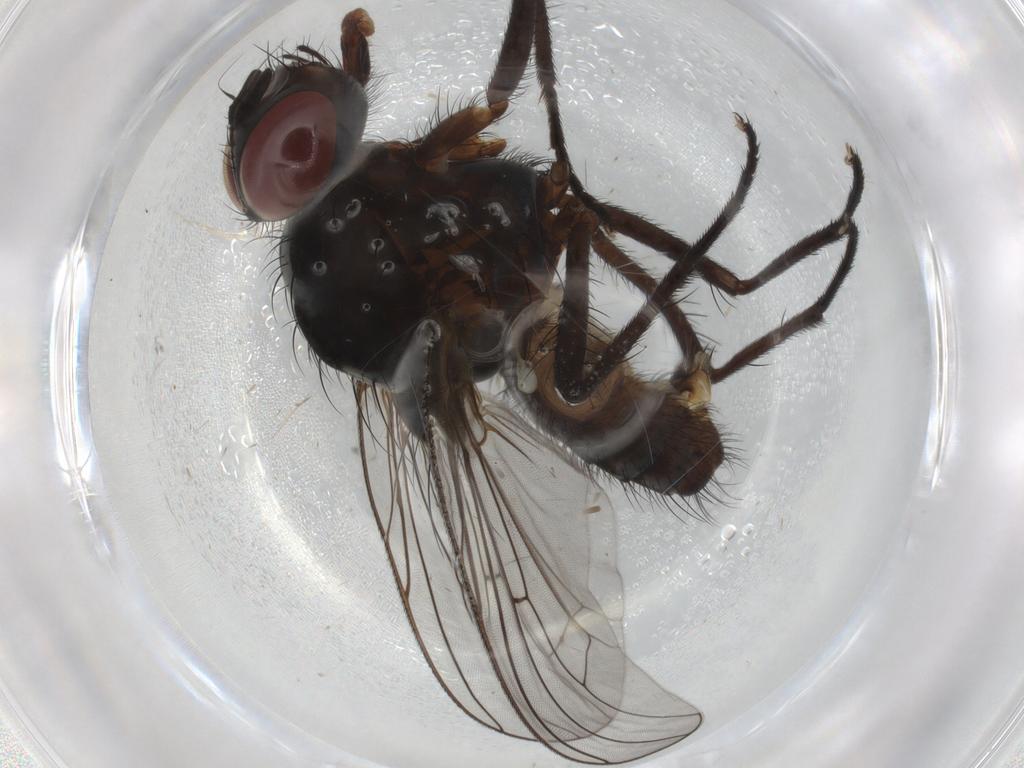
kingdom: Animalia
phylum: Arthropoda
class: Insecta
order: Diptera
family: Anthomyiidae
